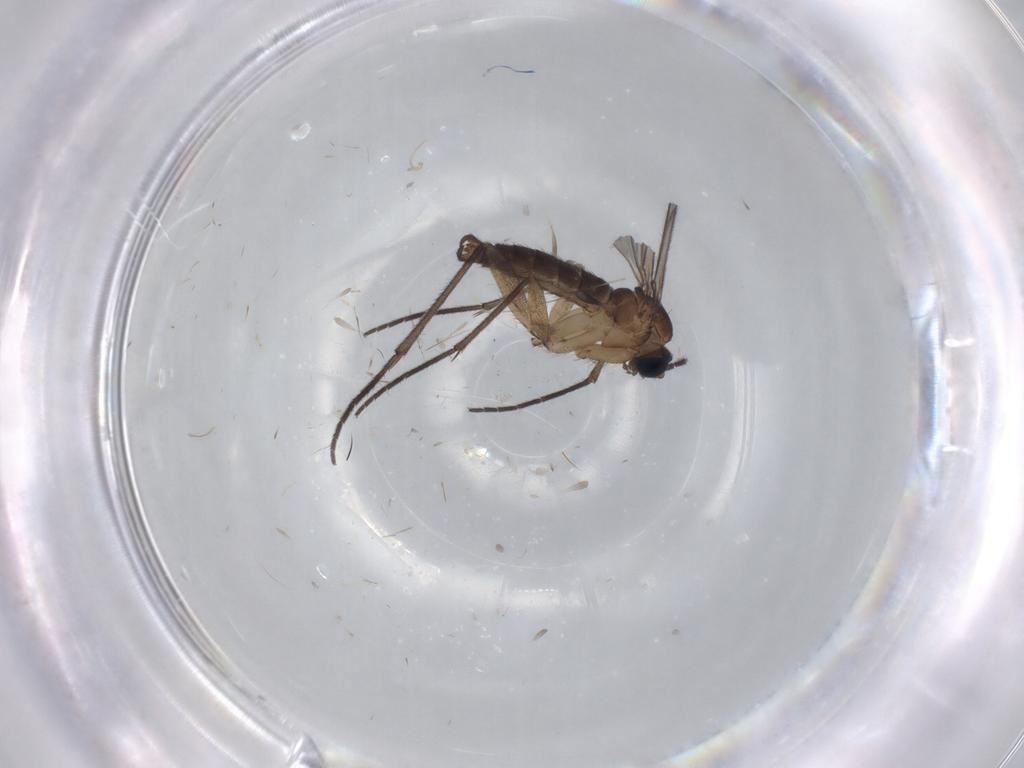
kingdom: Animalia
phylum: Arthropoda
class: Insecta
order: Diptera
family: Sciaridae
